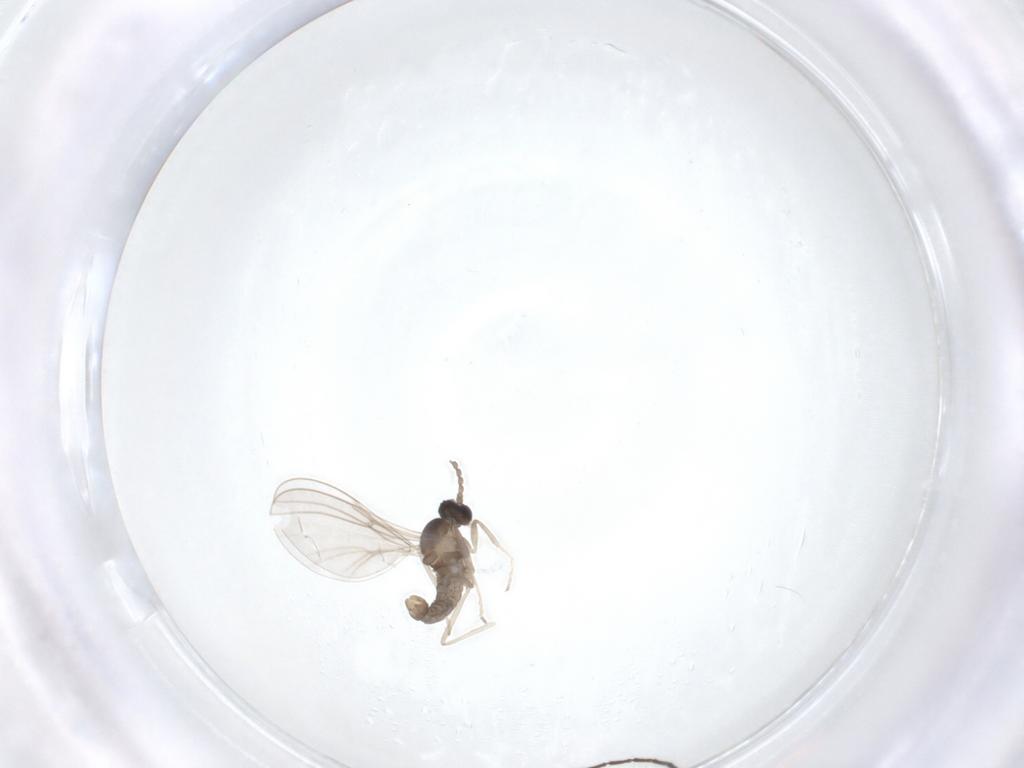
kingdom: Animalia
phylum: Arthropoda
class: Insecta
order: Diptera
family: Cecidomyiidae
